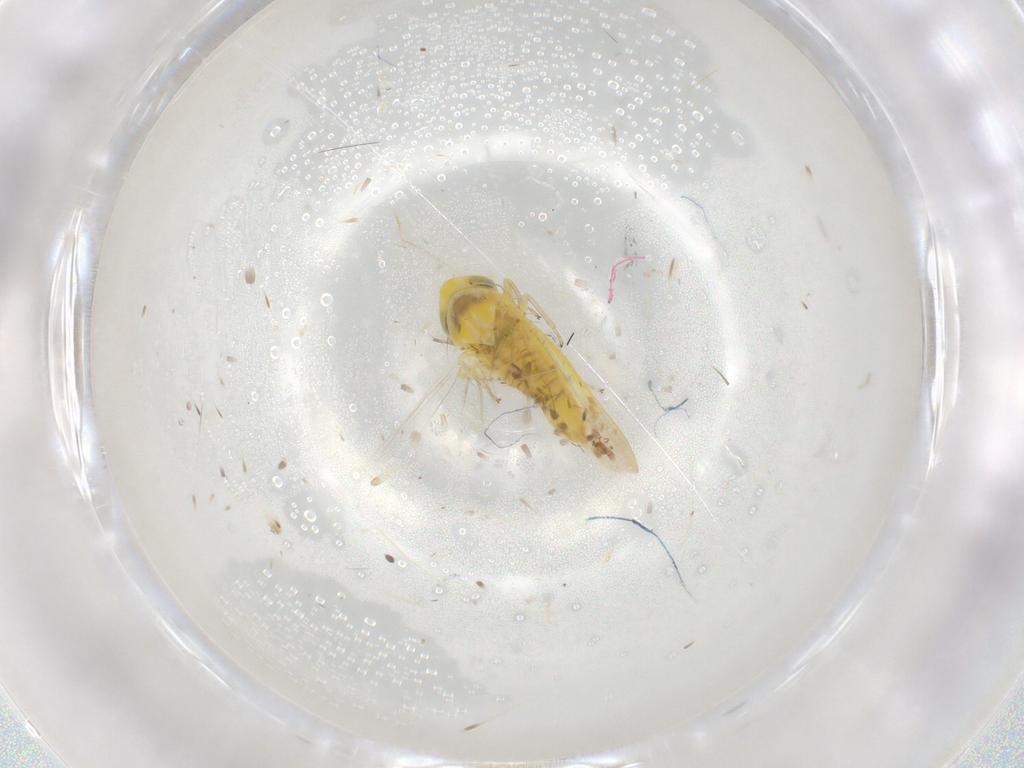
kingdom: Animalia
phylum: Arthropoda
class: Insecta
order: Hemiptera
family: Cicadellidae
